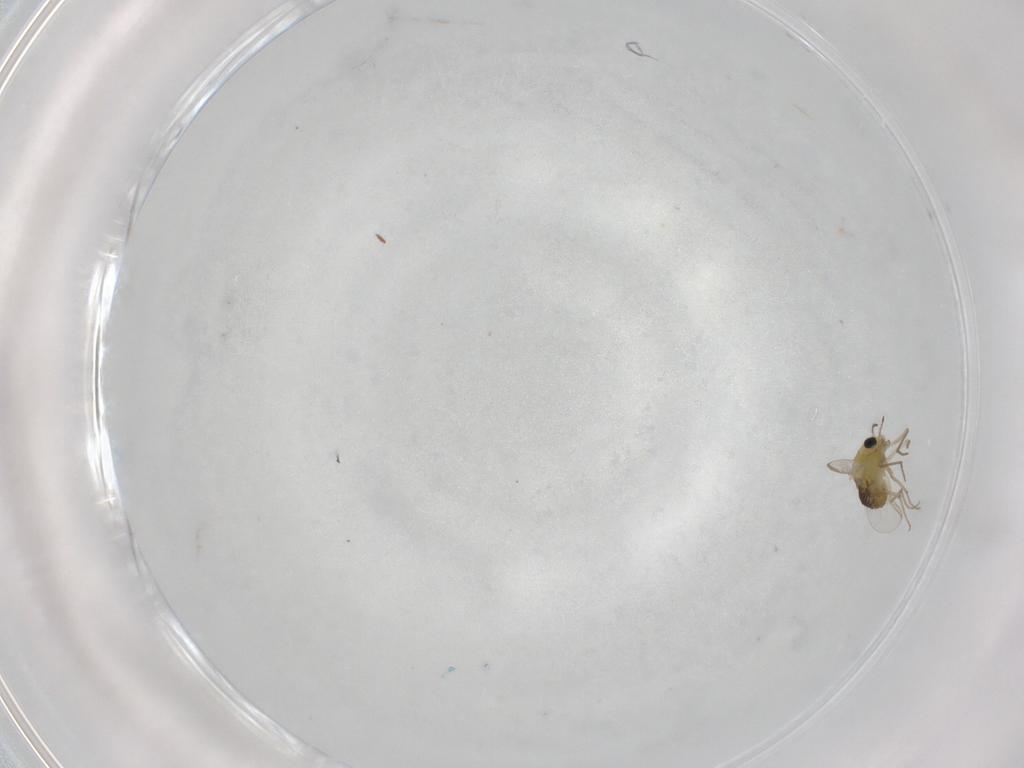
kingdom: Animalia
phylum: Arthropoda
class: Insecta
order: Diptera
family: Chironomidae
